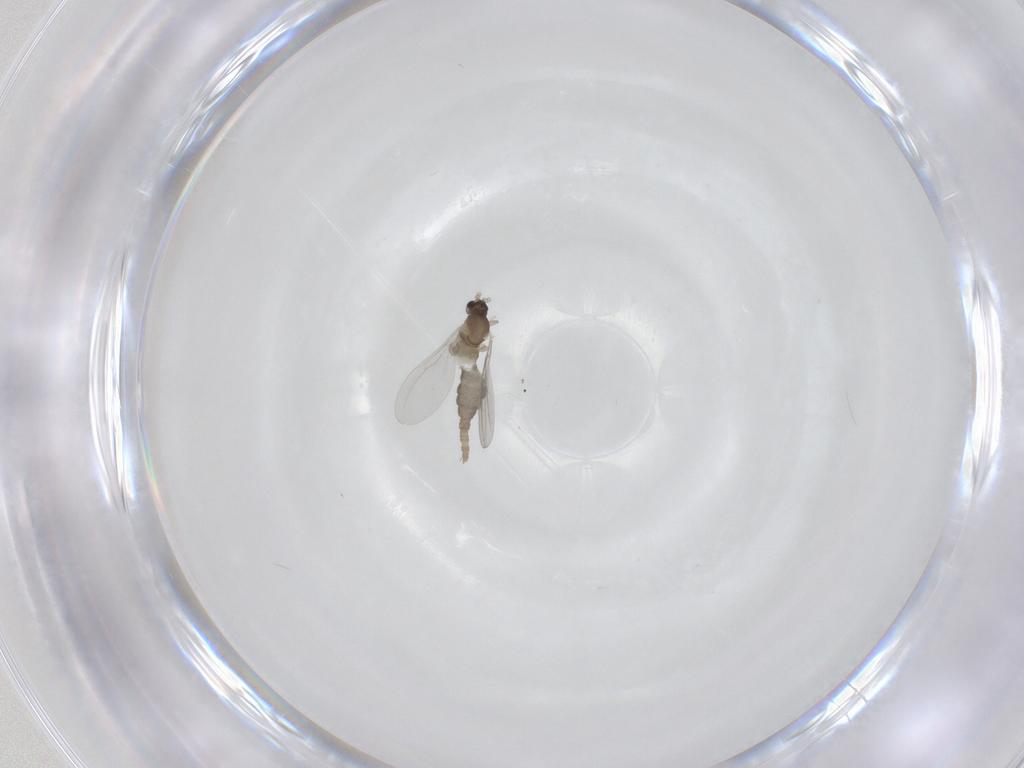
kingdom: Animalia
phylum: Arthropoda
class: Insecta
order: Diptera
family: Cecidomyiidae
